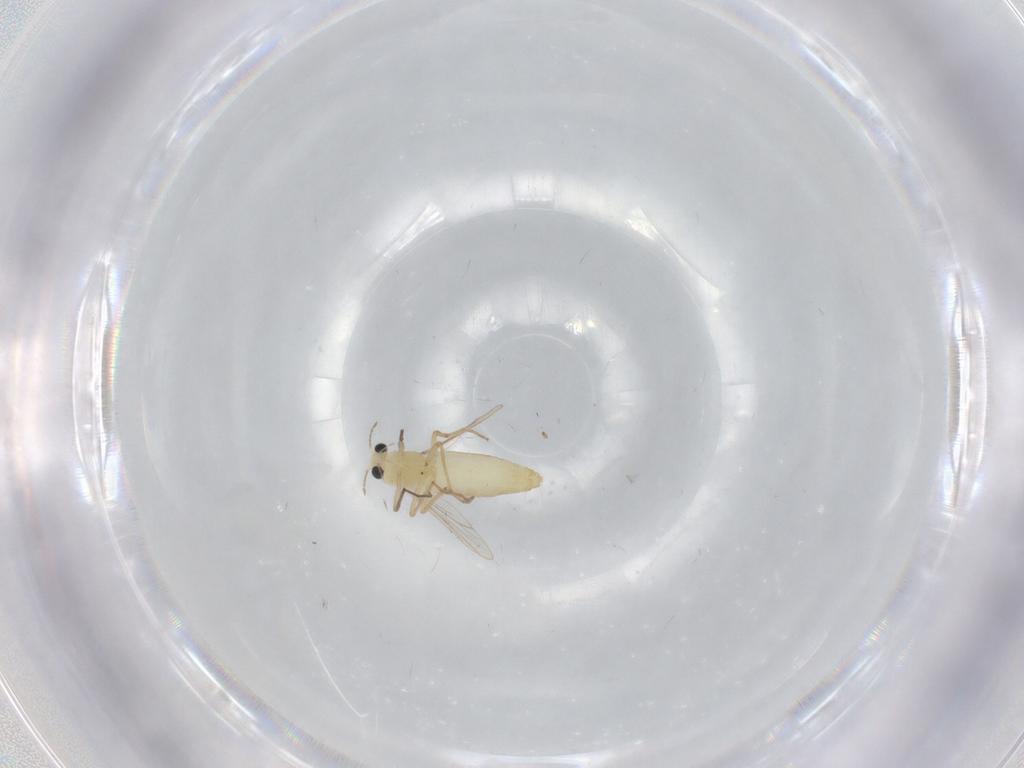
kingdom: Animalia
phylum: Arthropoda
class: Insecta
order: Diptera
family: Chironomidae
